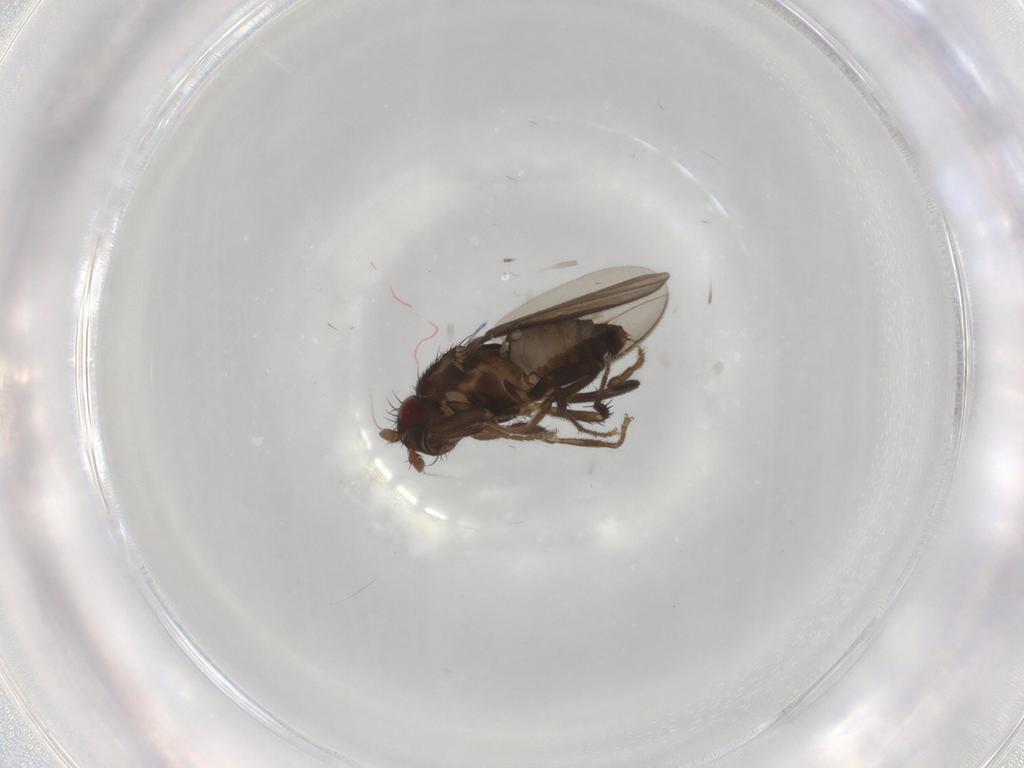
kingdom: Animalia
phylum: Arthropoda
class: Insecta
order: Diptera
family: Sphaeroceridae
